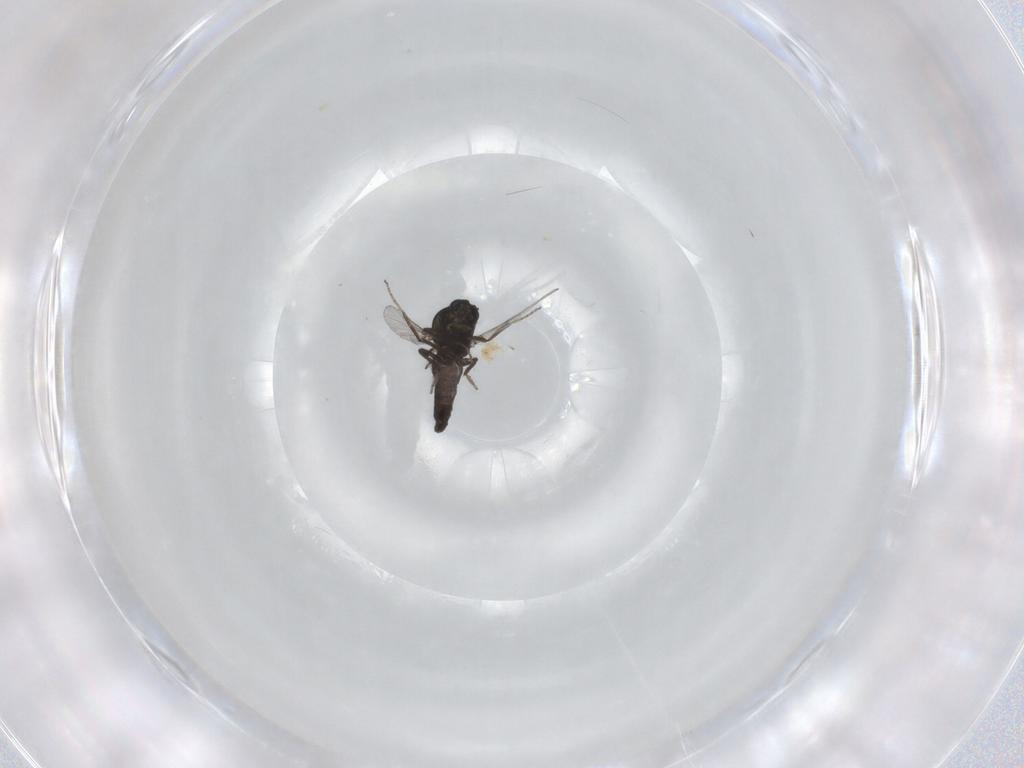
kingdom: Animalia
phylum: Arthropoda
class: Insecta
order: Diptera
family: Ceratopogonidae
